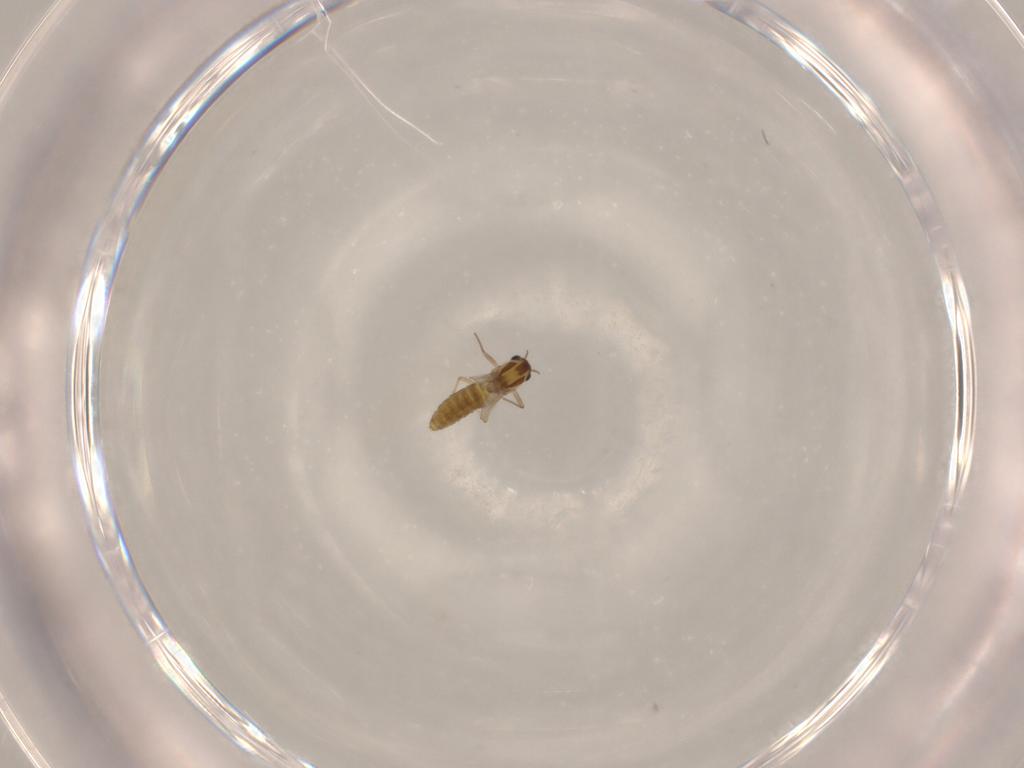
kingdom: Animalia
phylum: Arthropoda
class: Insecta
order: Diptera
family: Chironomidae
